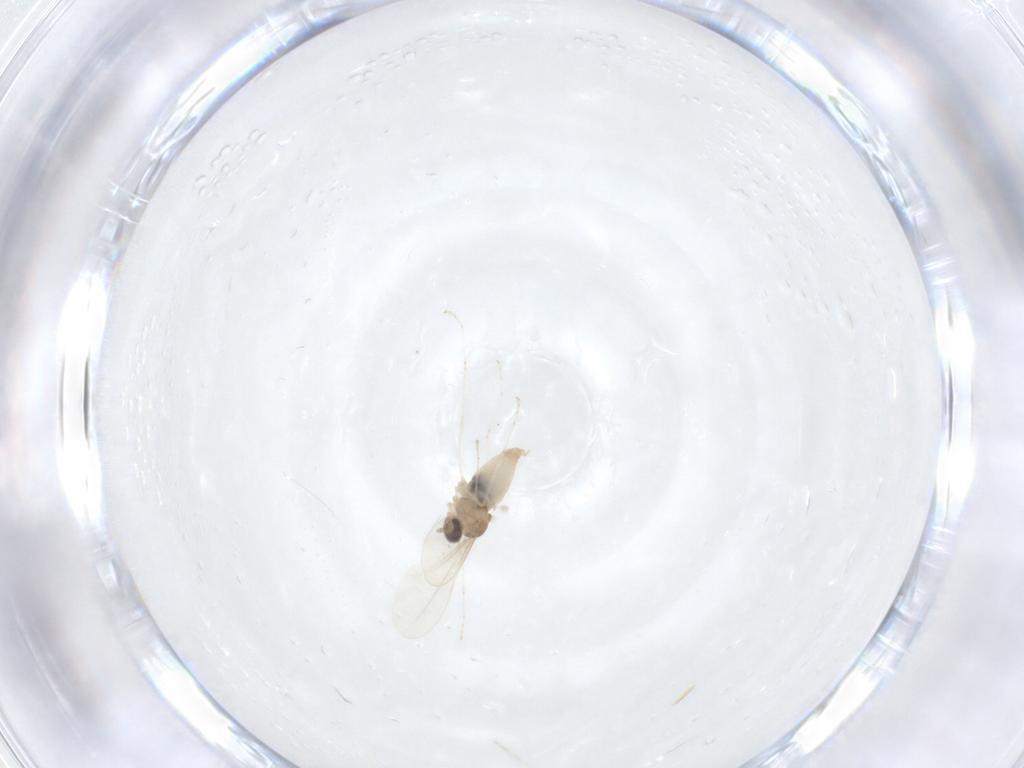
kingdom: Animalia
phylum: Arthropoda
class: Insecta
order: Diptera
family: Cecidomyiidae
